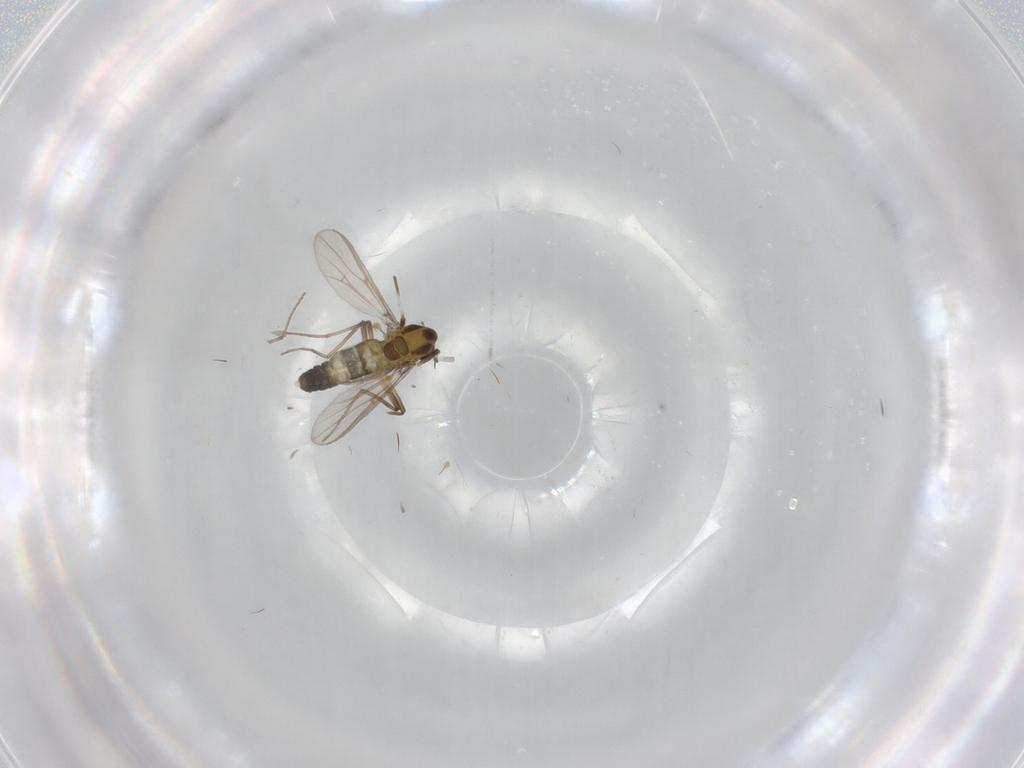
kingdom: Animalia
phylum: Arthropoda
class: Insecta
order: Diptera
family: Chironomidae
